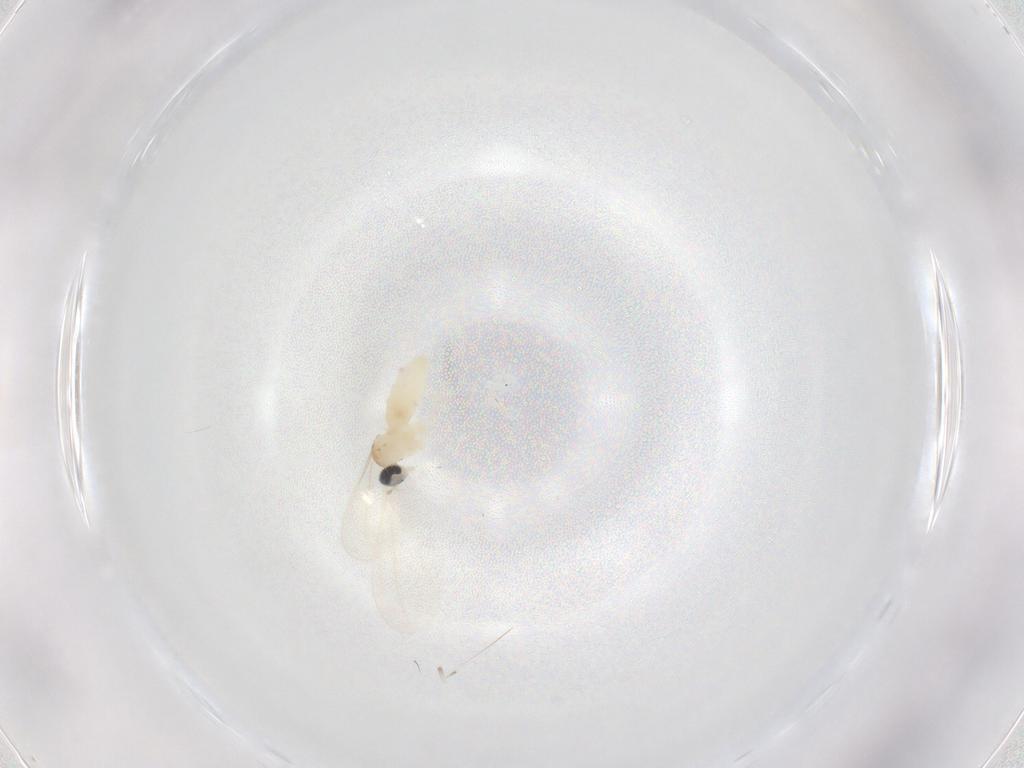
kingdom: Animalia
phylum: Arthropoda
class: Insecta
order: Diptera
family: Cecidomyiidae
